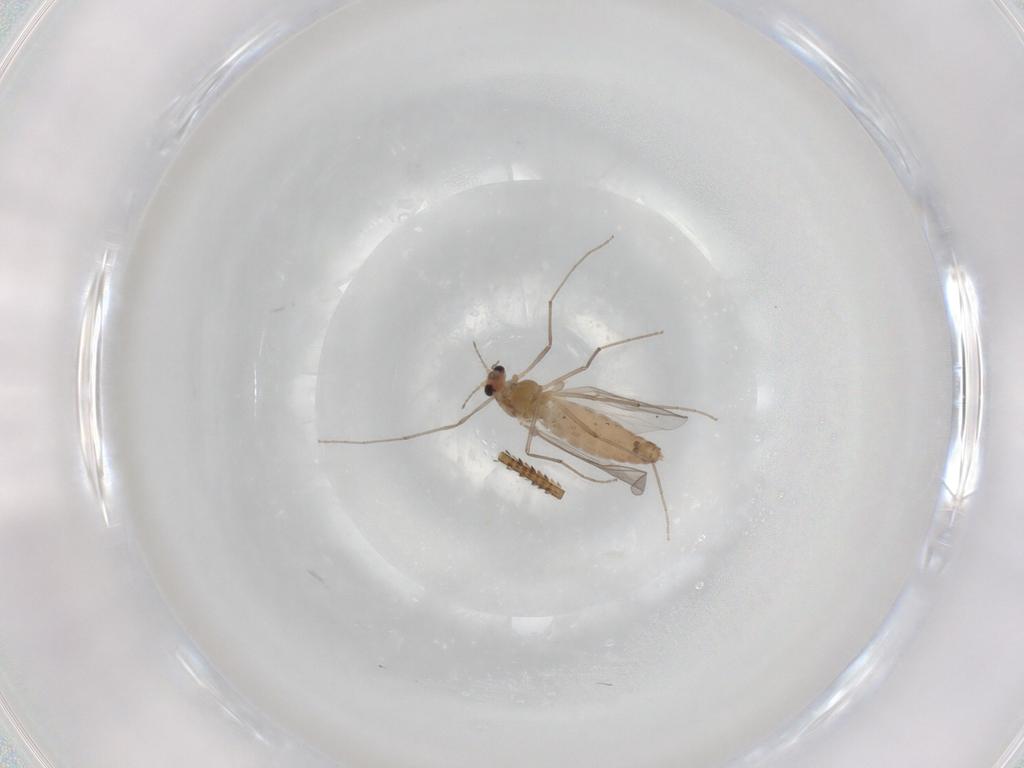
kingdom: Animalia
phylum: Arthropoda
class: Insecta
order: Diptera
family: Chironomidae
